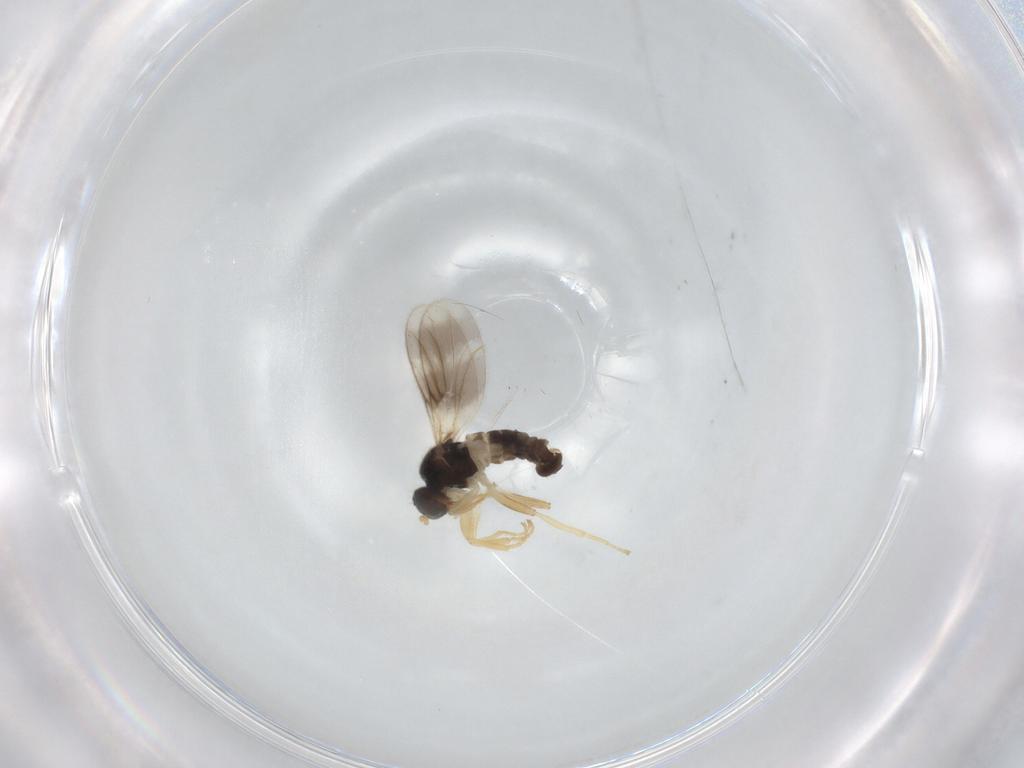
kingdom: Animalia
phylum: Arthropoda
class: Insecta
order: Diptera
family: Hybotidae
